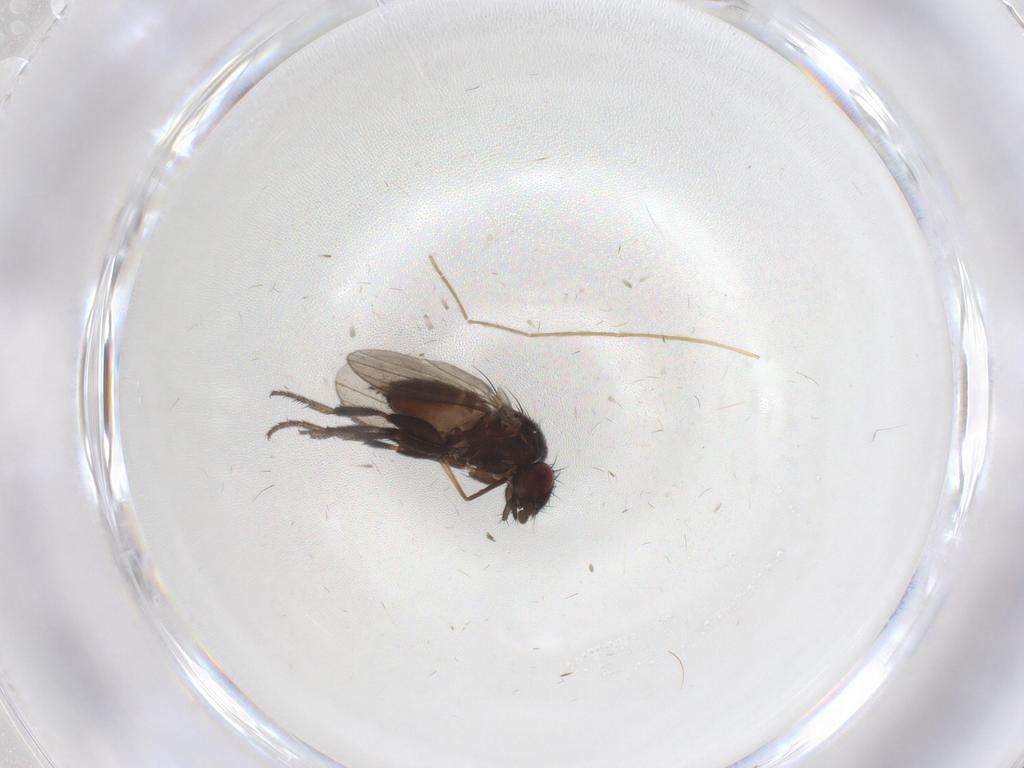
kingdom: Animalia
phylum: Arthropoda
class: Insecta
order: Diptera
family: Milichiidae
